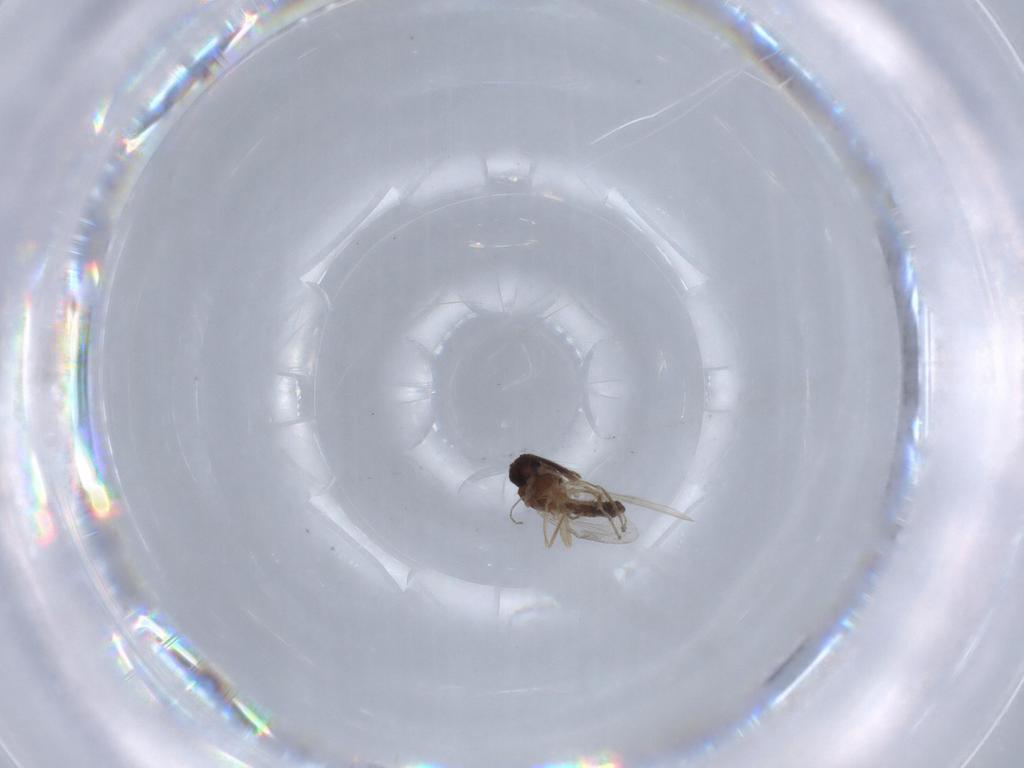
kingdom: Animalia
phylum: Arthropoda
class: Insecta
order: Diptera
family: Ceratopogonidae
